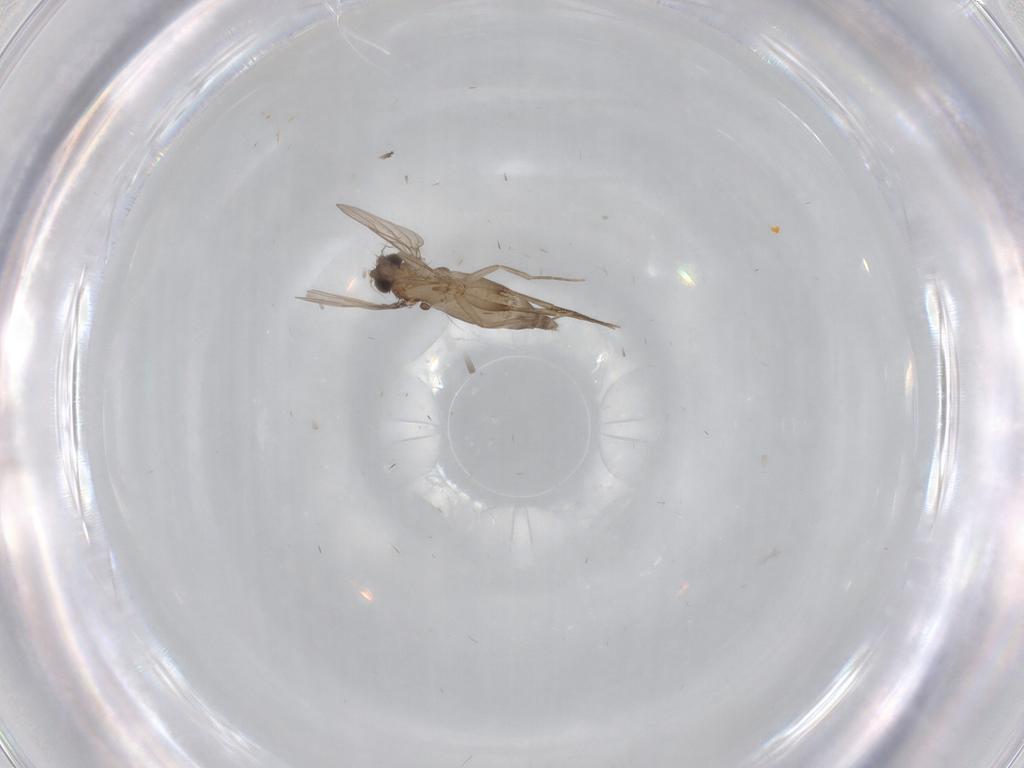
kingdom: Animalia
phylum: Arthropoda
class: Insecta
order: Diptera
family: Phoridae
